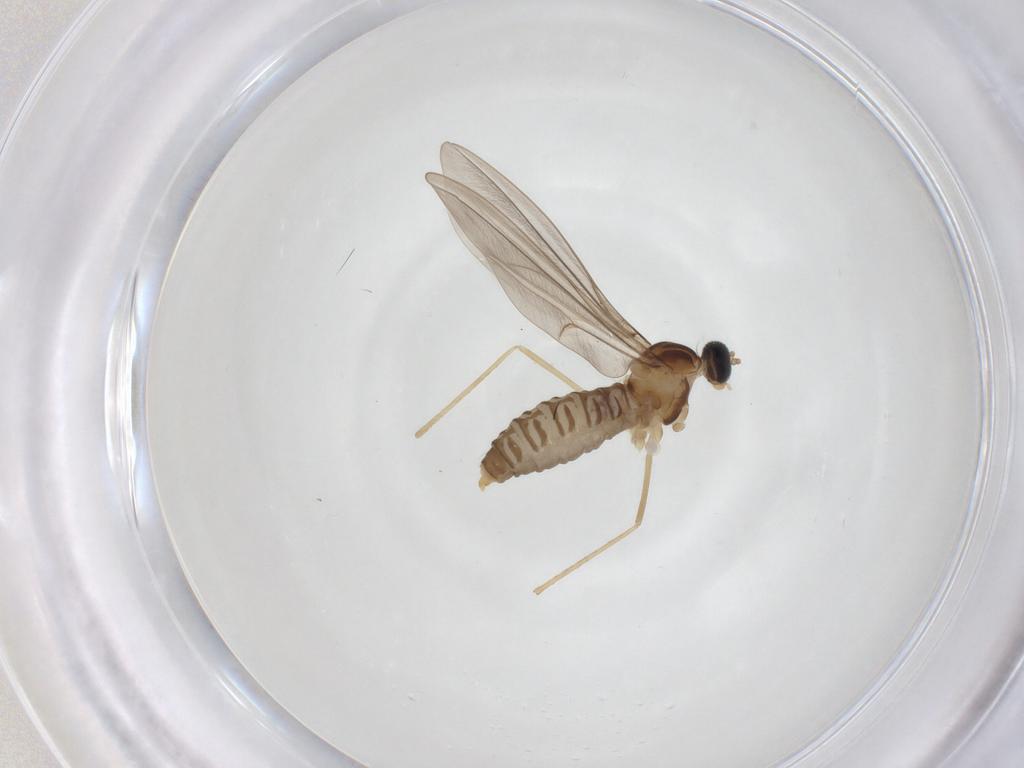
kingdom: Animalia
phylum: Arthropoda
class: Insecta
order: Diptera
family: Cecidomyiidae
